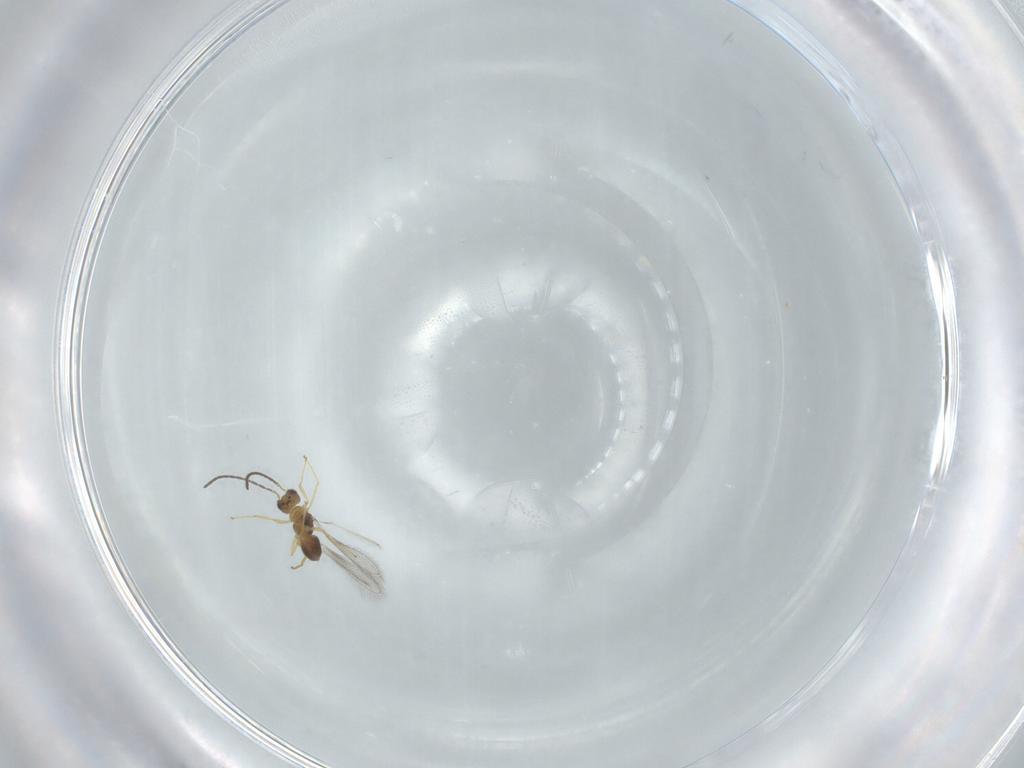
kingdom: Animalia
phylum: Arthropoda
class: Insecta
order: Hymenoptera
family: Mymaridae
